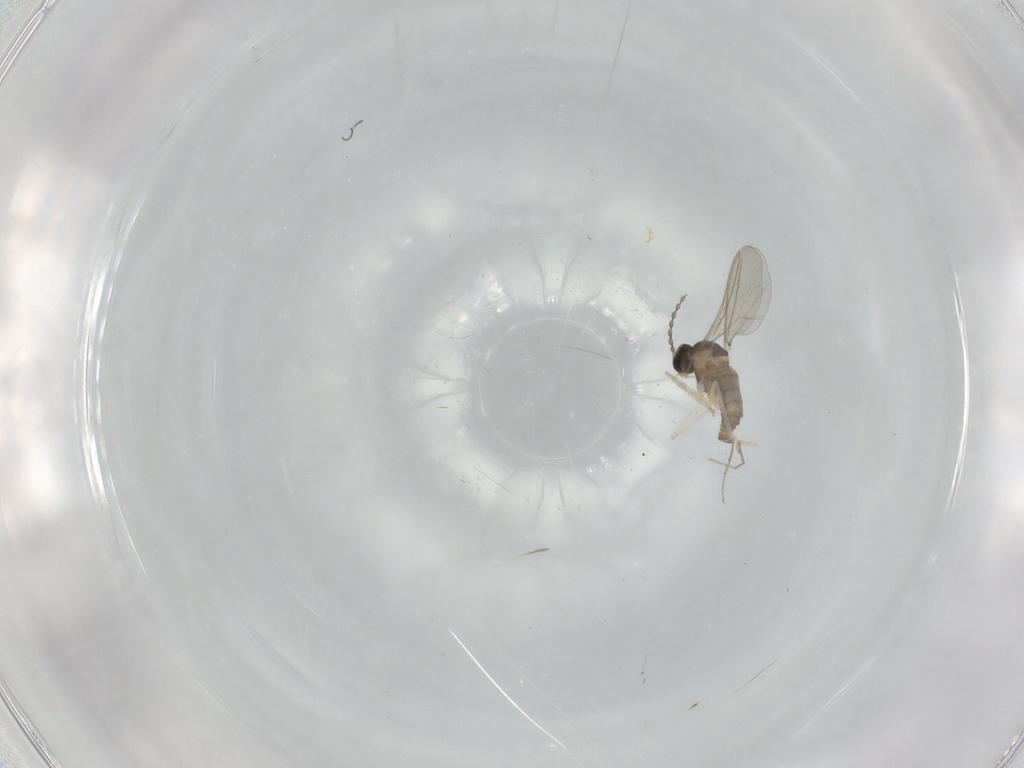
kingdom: Animalia
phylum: Arthropoda
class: Insecta
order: Diptera
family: Cecidomyiidae
